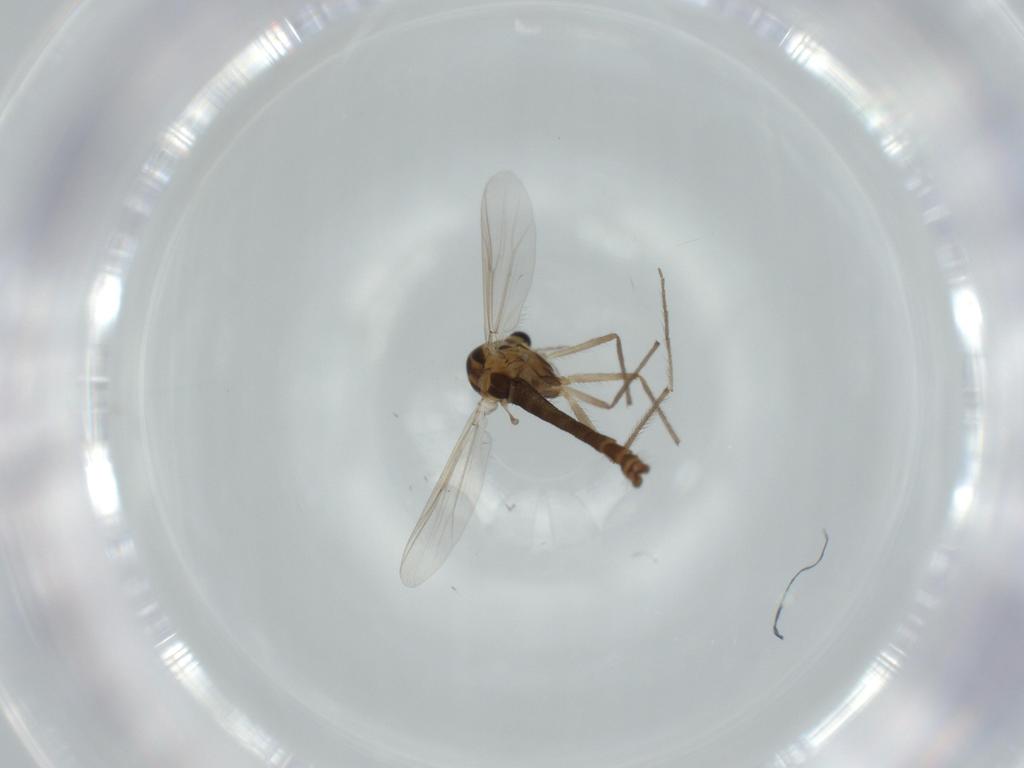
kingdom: Animalia
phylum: Arthropoda
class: Insecta
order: Diptera
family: Chironomidae
